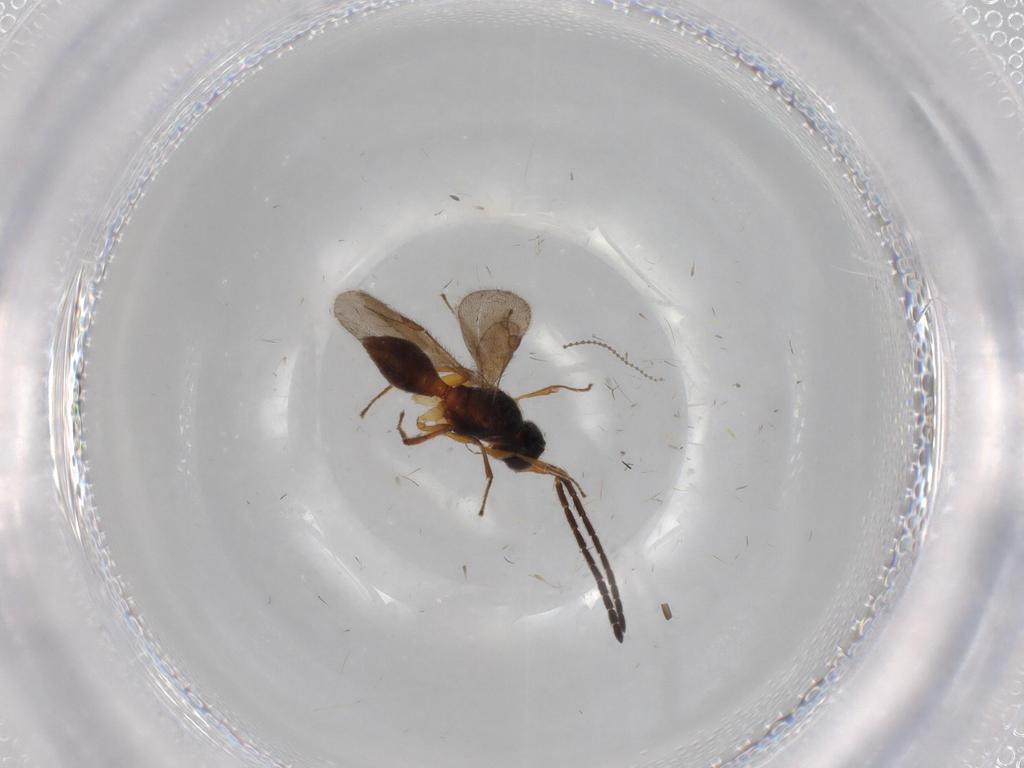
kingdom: Animalia
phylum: Arthropoda
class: Insecta
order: Hymenoptera
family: Megaspilidae
